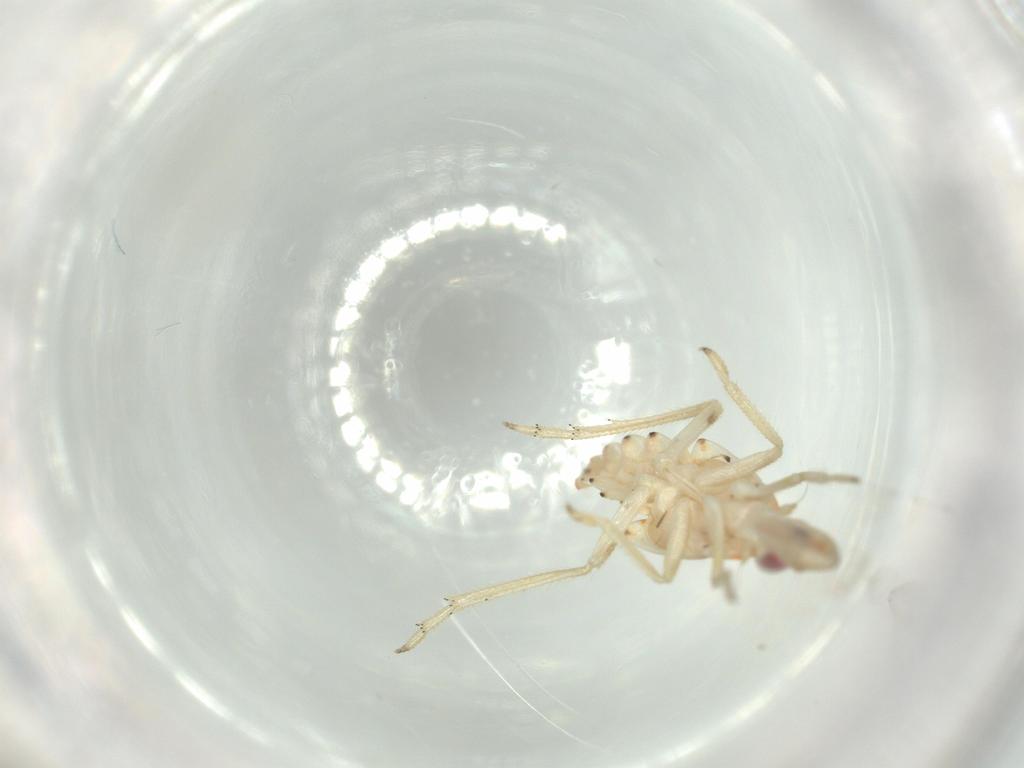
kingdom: Animalia
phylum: Arthropoda
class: Insecta
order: Hemiptera
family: Tropiduchidae
